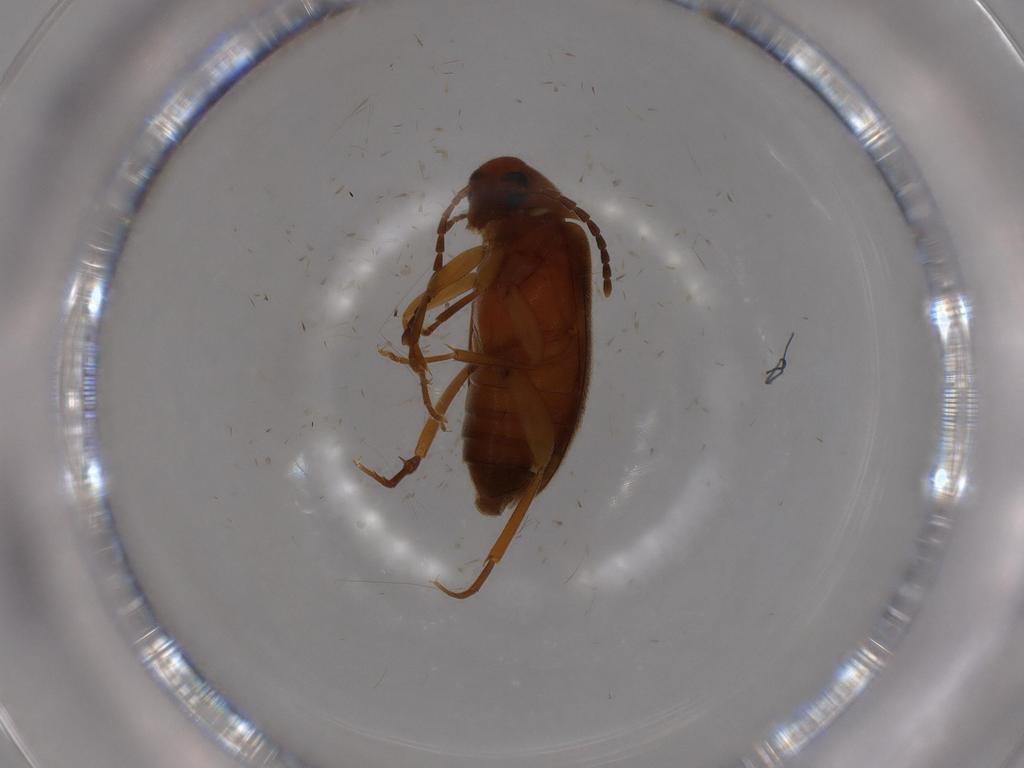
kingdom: Animalia
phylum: Arthropoda
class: Insecta
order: Coleoptera
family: Scraptiidae
